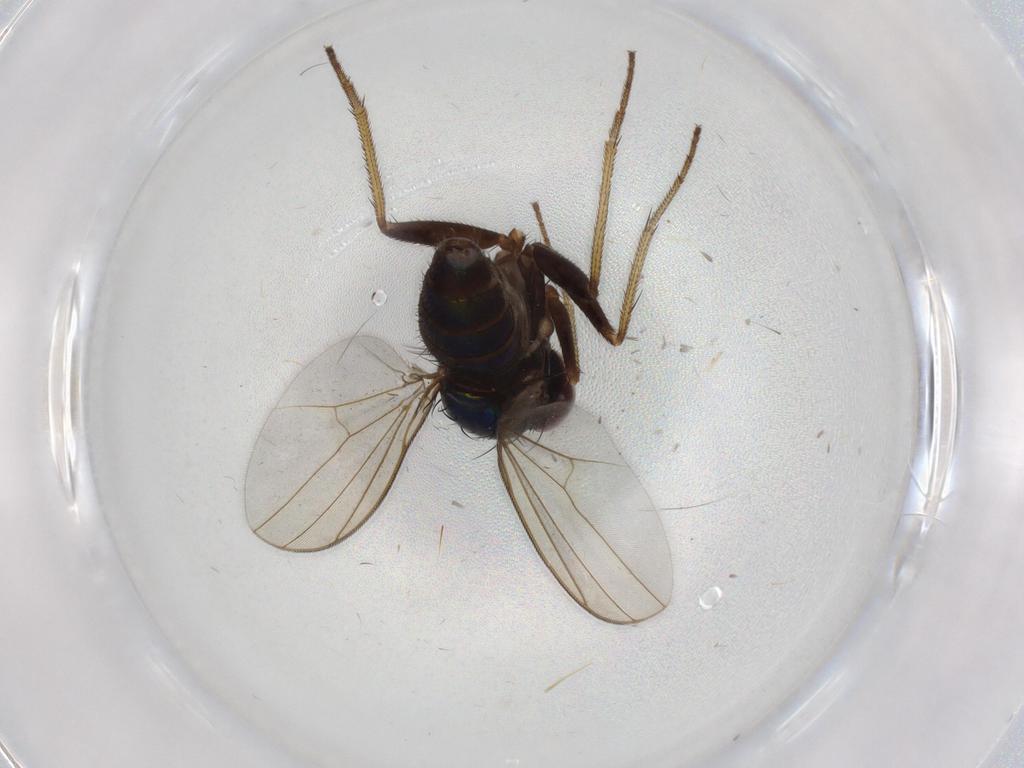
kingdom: Animalia
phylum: Arthropoda
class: Insecta
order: Diptera
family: Dolichopodidae
